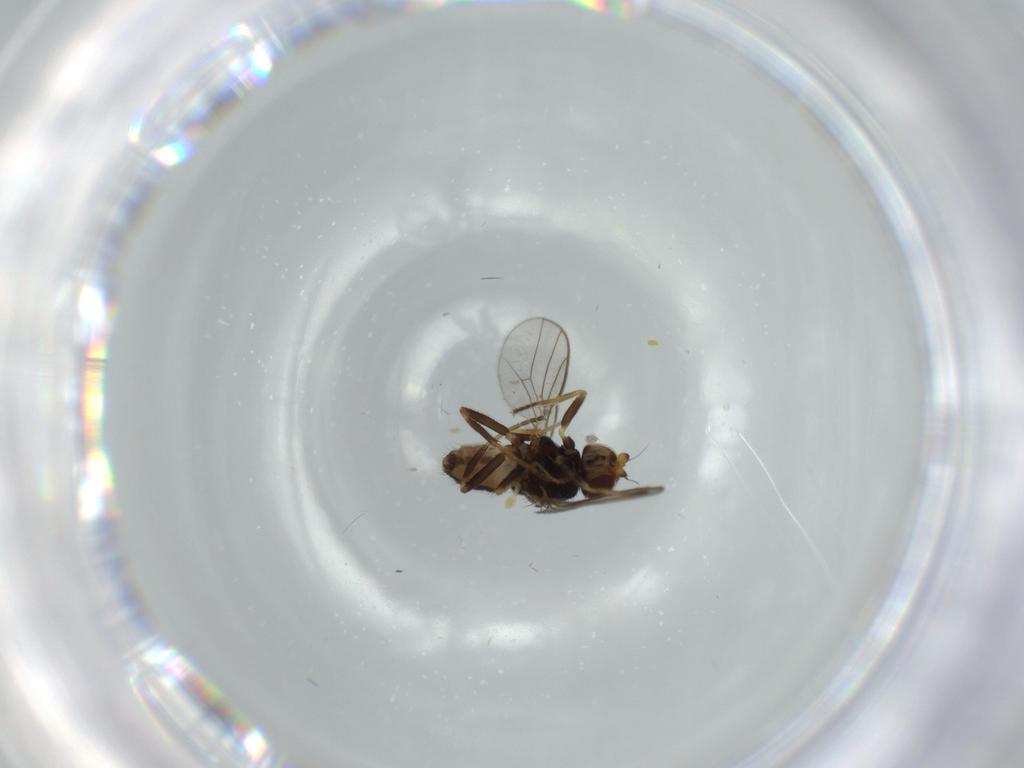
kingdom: Animalia
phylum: Arthropoda
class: Insecta
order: Diptera
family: Chloropidae
